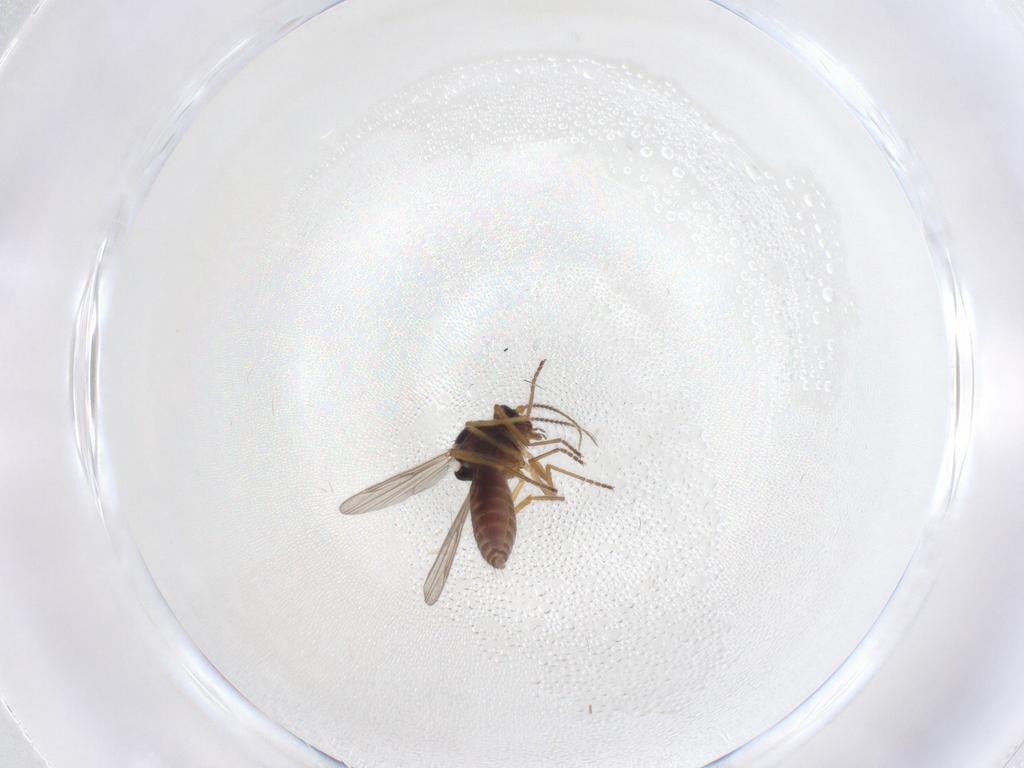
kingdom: Animalia
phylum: Arthropoda
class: Insecta
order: Diptera
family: Ceratopogonidae
